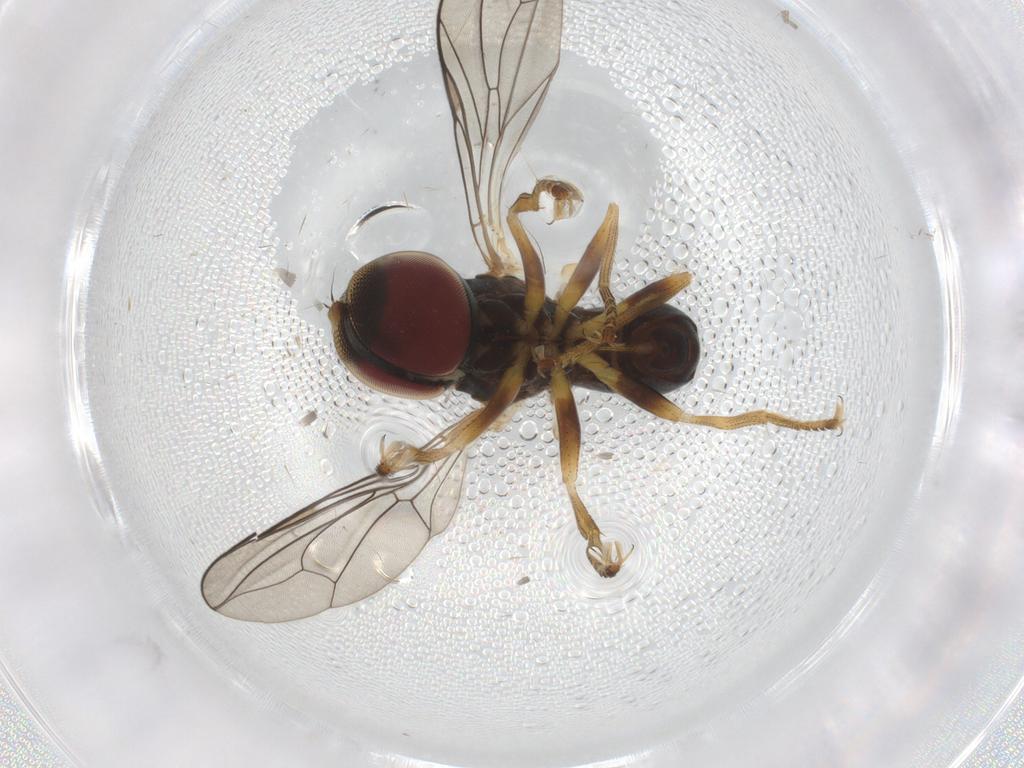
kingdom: Animalia
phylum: Arthropoda
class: Insecta
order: Diptera
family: Pipunculidae
